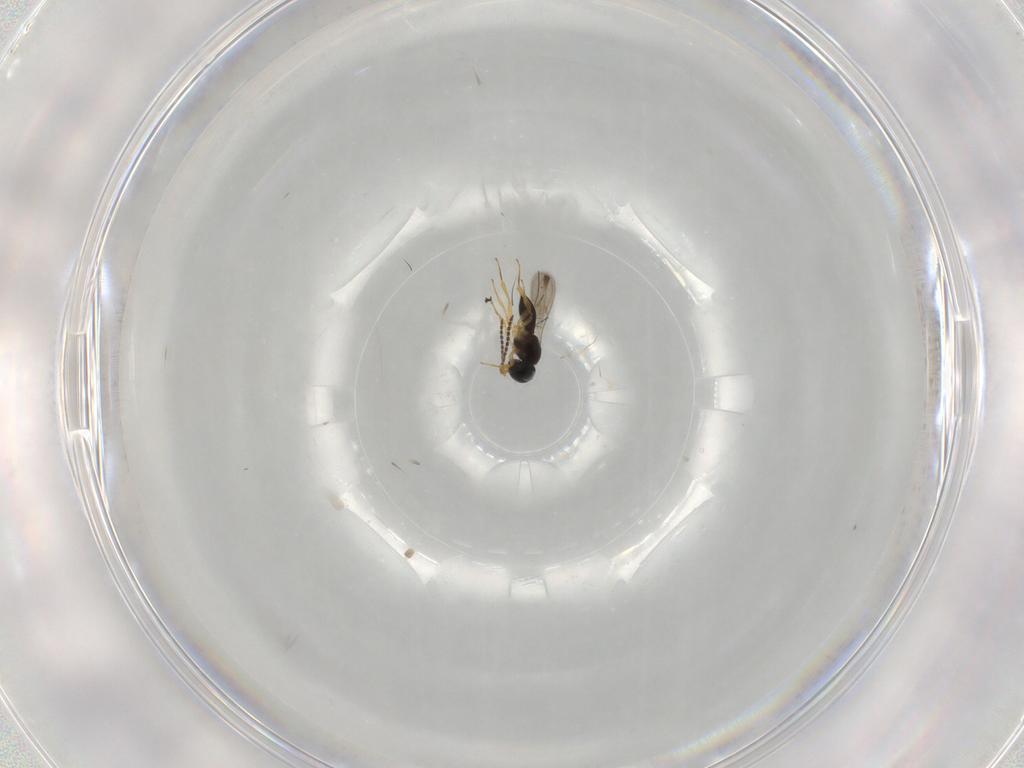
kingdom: Animalia
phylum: Arthropoda
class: Insecta
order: Hymenoptera
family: Scelionidae
